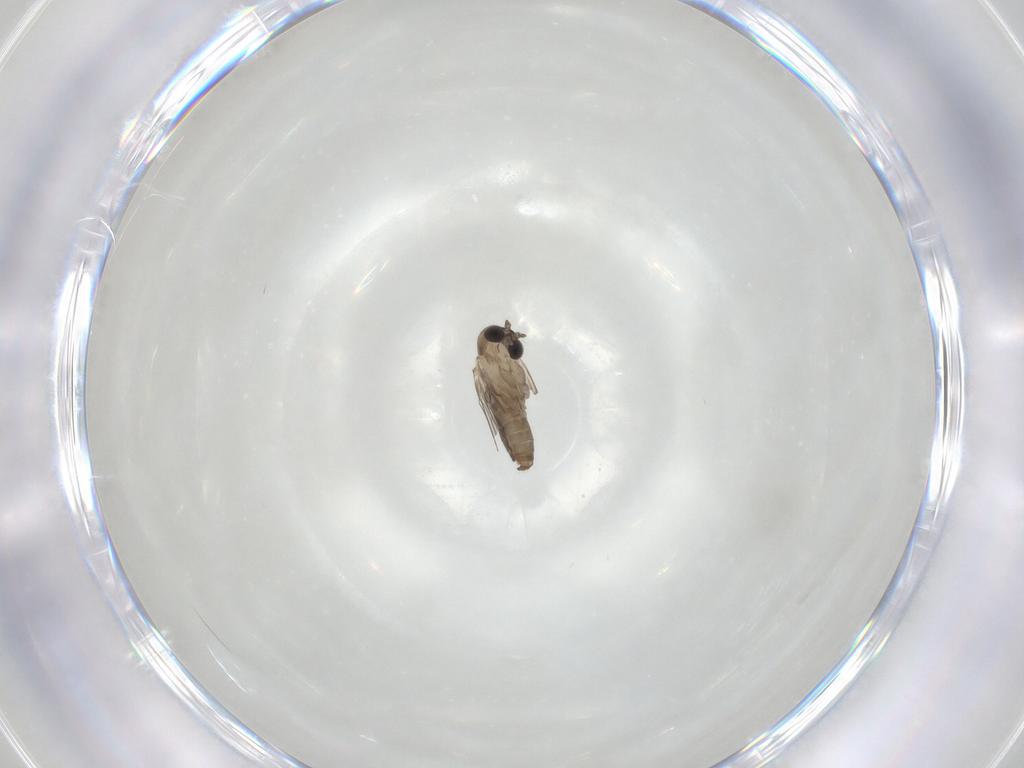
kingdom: Animalia
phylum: Arthropoda
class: Insecta
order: Diptera
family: Psychodidae
